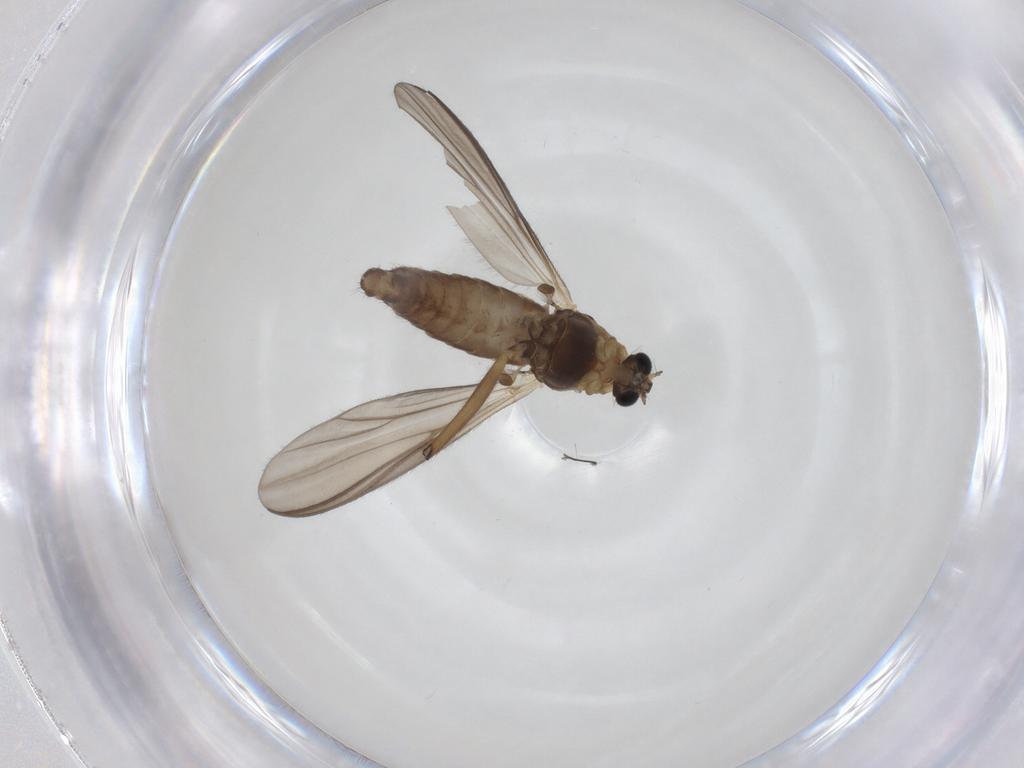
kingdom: Animalia
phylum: Arthropoda
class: Insecta
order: Diptera
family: Chironomidae
